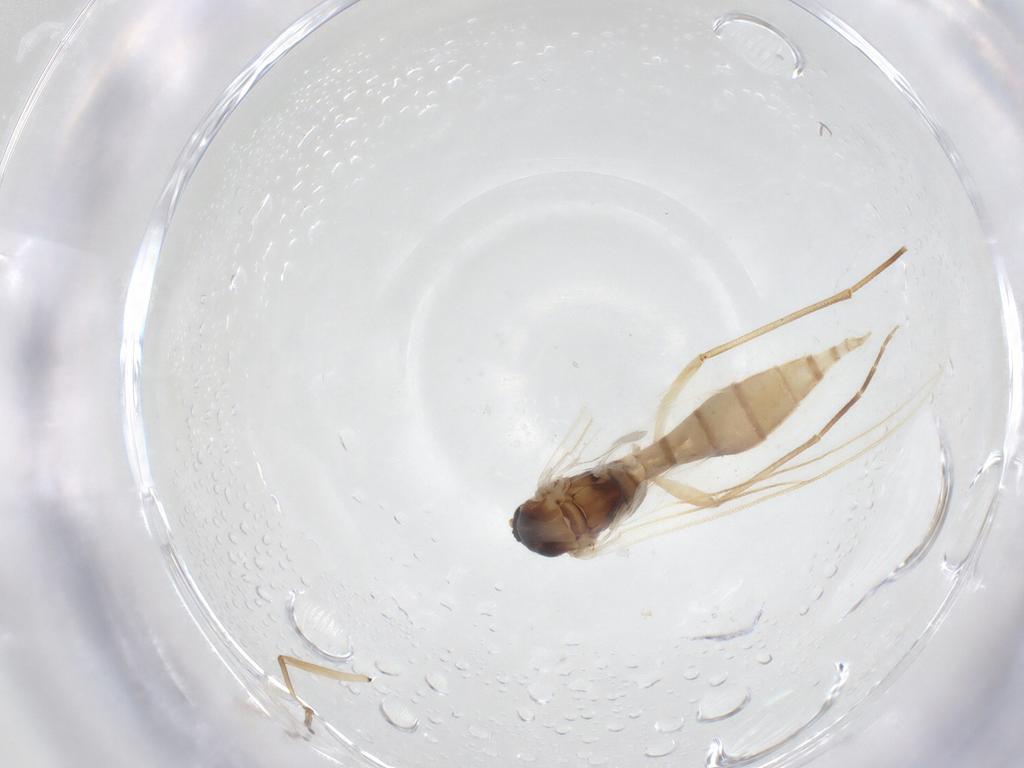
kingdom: Animalia
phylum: Arthropoda
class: Insecta
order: Diptera
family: Sciaridae
